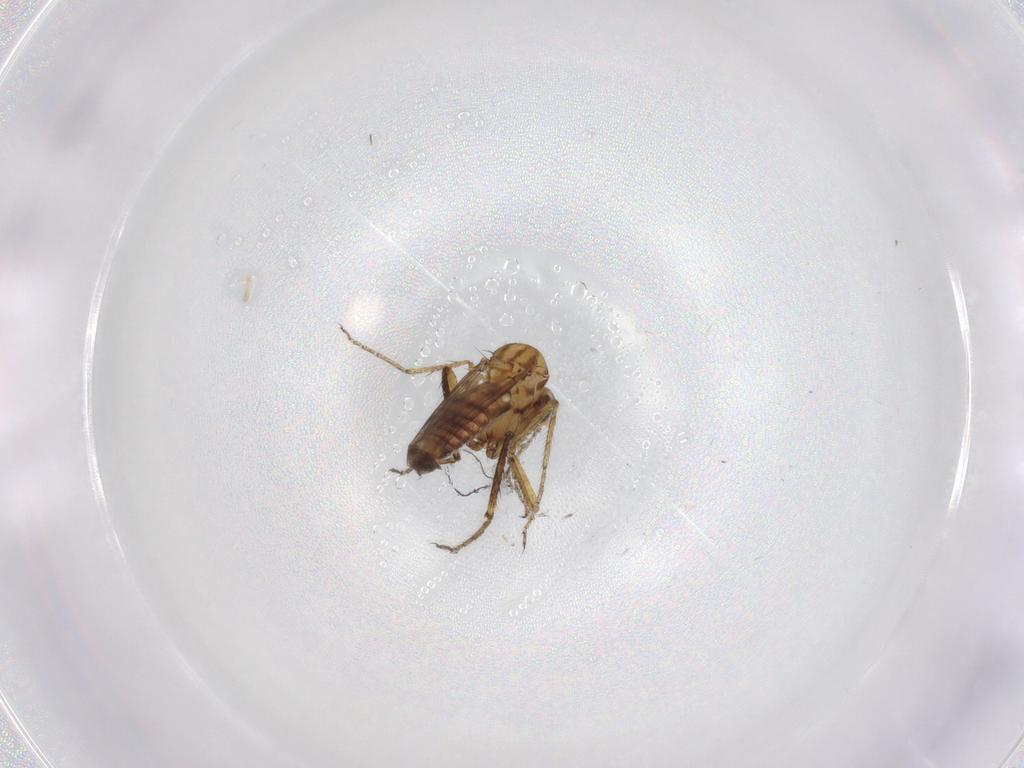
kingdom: Animalia
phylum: Arthropoda
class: Insecta
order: Diptera
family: Ceratopogonidae
